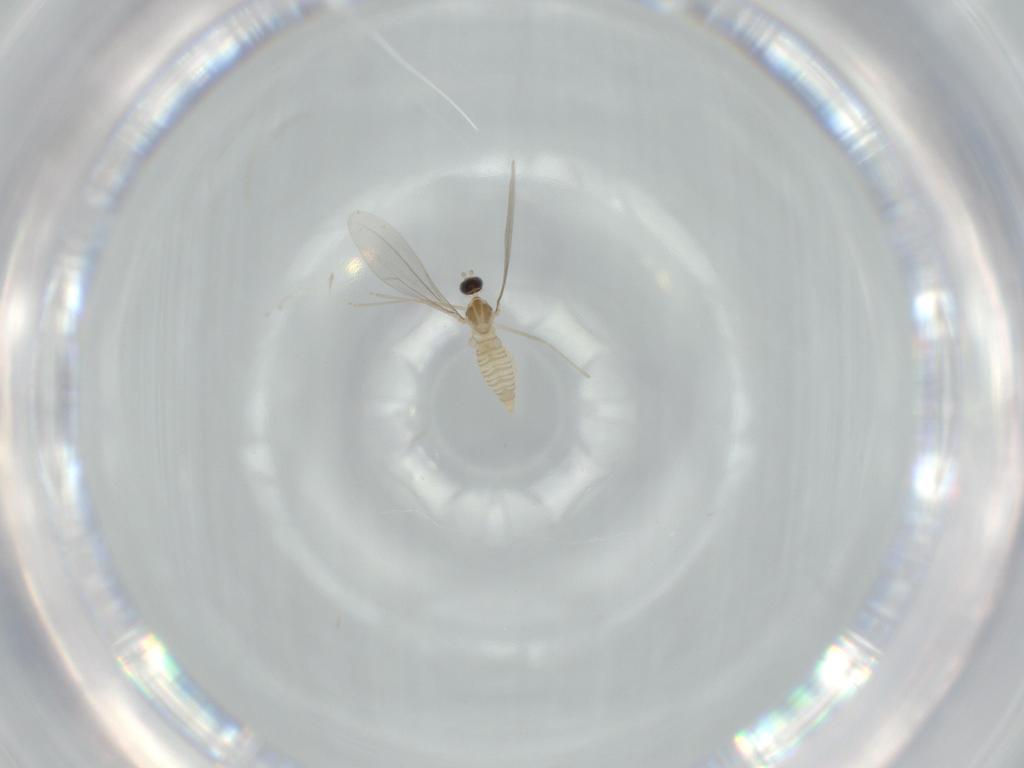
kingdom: Animalia
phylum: Arthropoda
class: Insecta
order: Diptera
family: Cecidomyiidae
